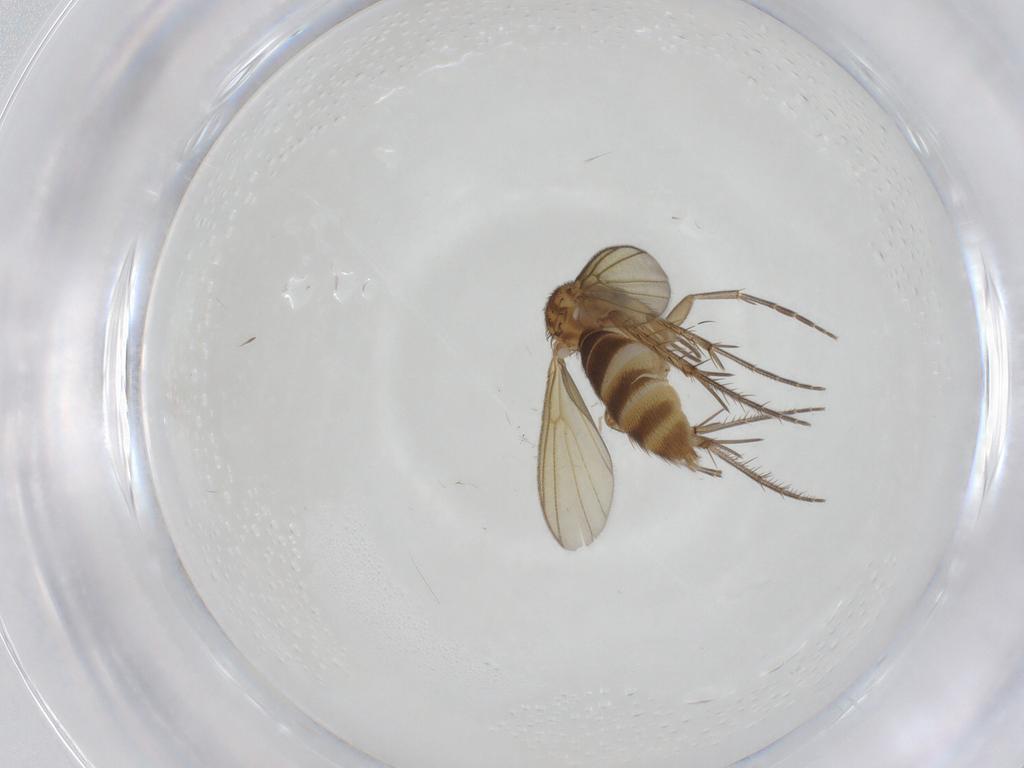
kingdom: Animalia
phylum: Arthropoda
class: Insecta
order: Diptera
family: Mycetophilidae
